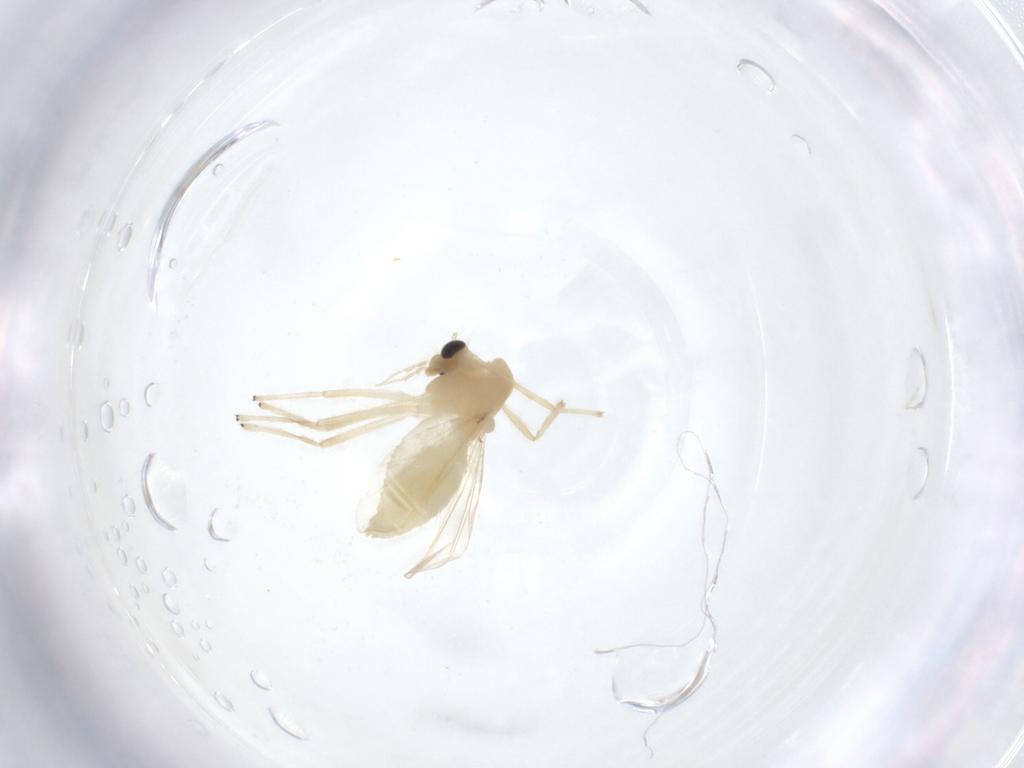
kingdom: Animalia
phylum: Arthropoda
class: Insecta
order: Diptera
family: Chironomidae
